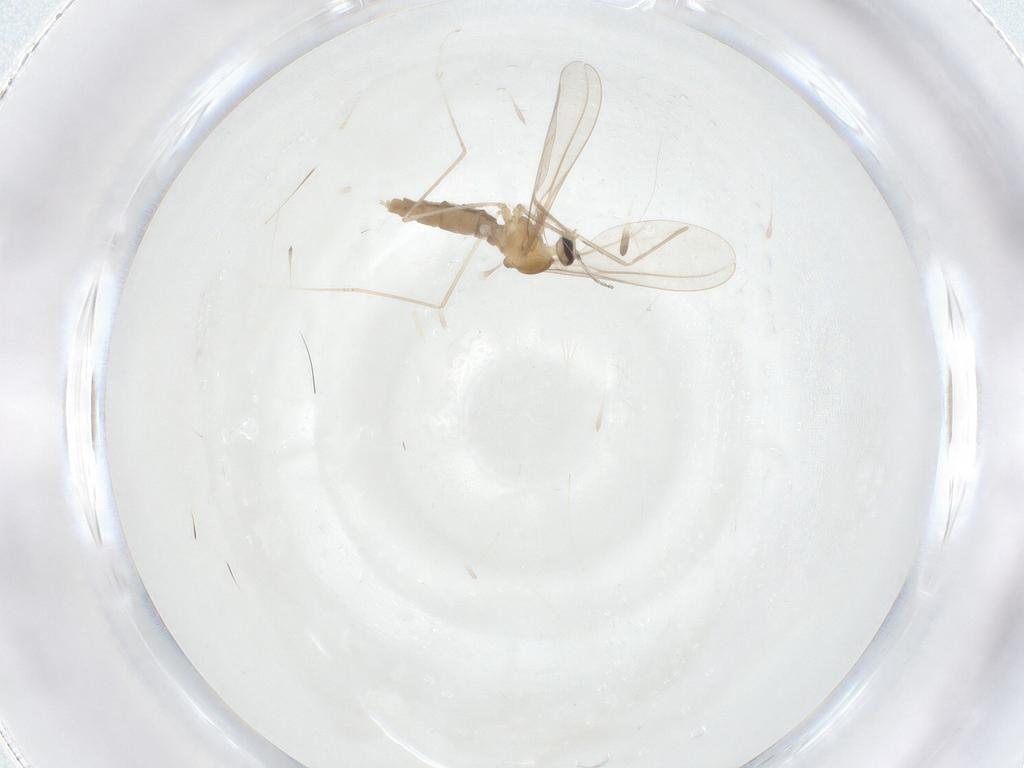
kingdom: Animalia
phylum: Arthropoda
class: Insecta
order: Diptera
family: Cecidomyiidae
